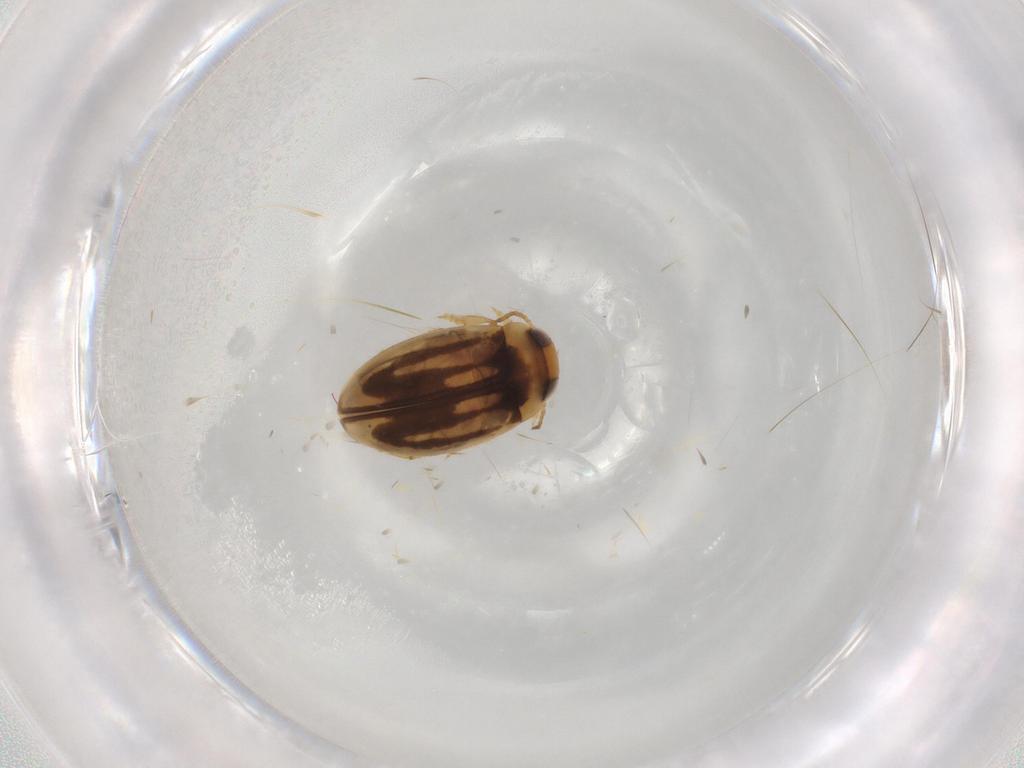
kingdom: Animalia
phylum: Arthropoda
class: Insecta
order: Coleoptera
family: Dytiscidae
